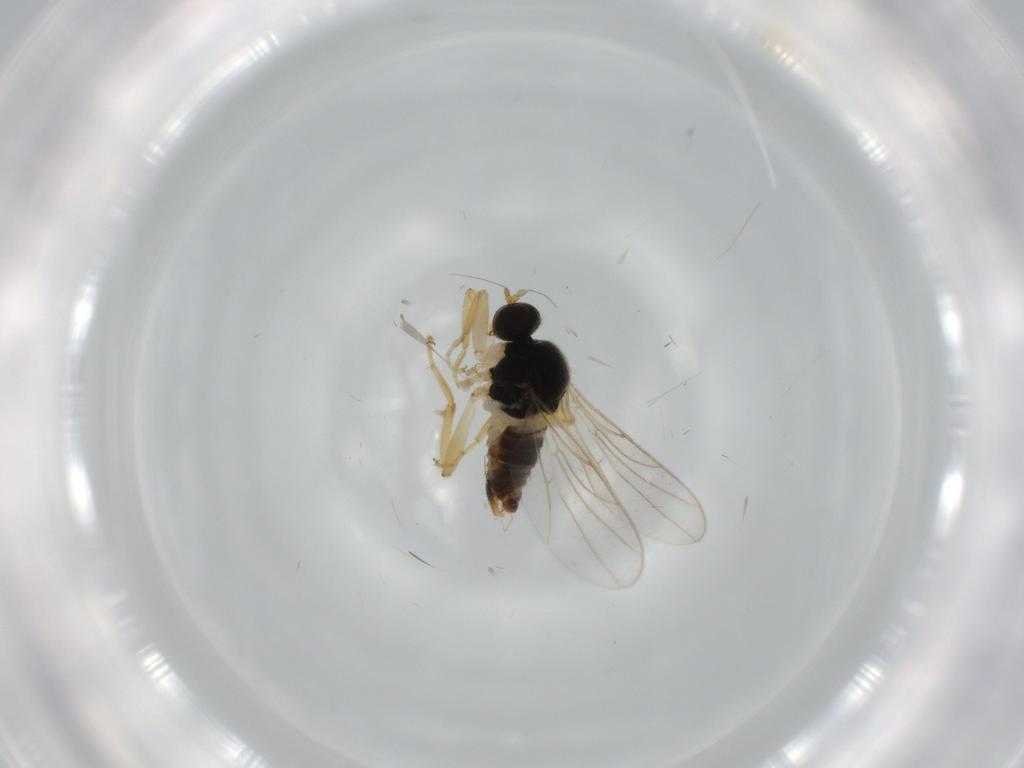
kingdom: Animalia
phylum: Arthropoda
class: Insecta
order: Diptera
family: Hybotidae
